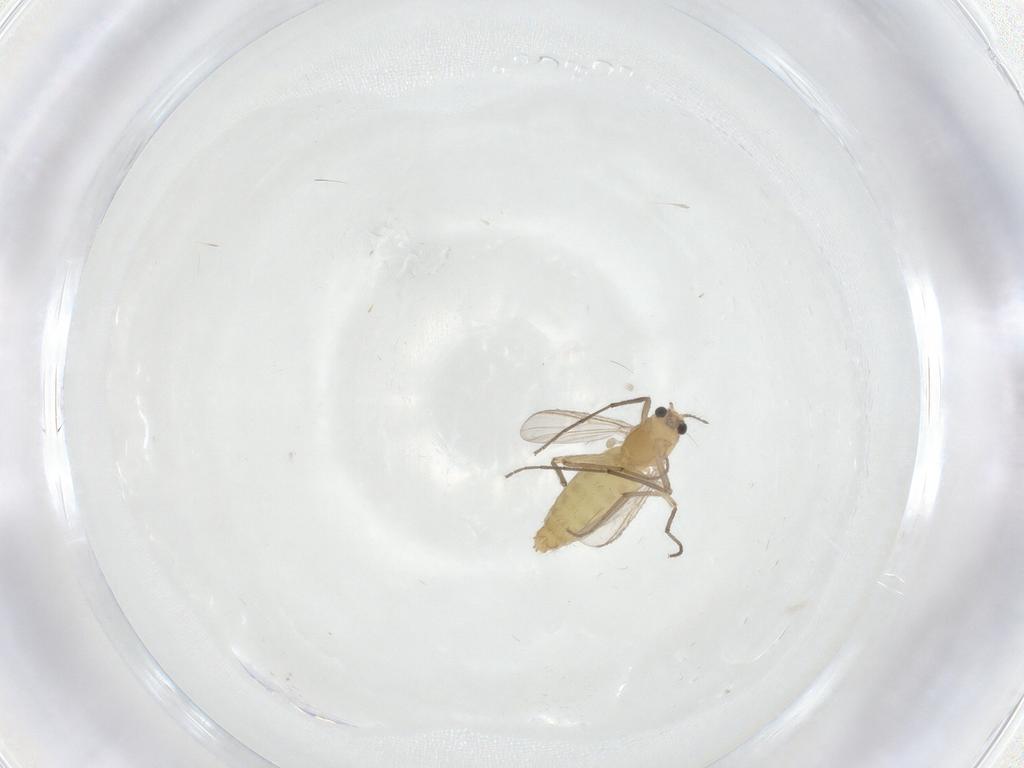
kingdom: Animalia
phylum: Arthropoda
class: Insecta
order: Diptera
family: Chironomidae
